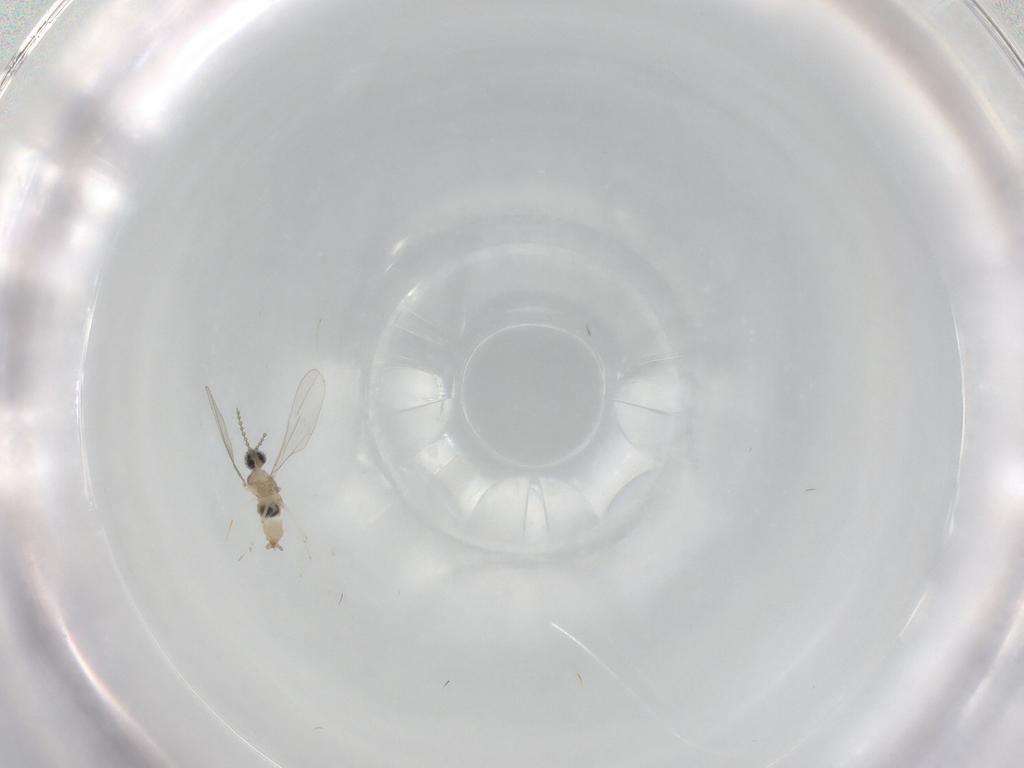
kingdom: Animalia
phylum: Arthropoda
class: Insecta
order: Diptera
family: Cecidomyiidae
